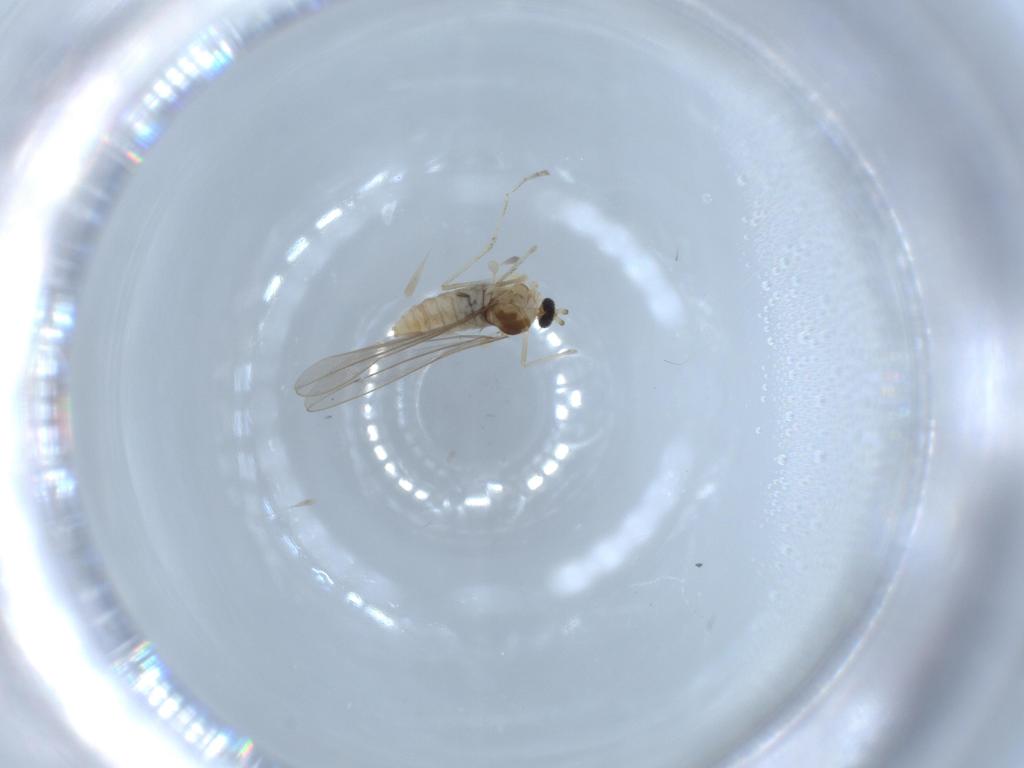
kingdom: Animalia
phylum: Arthropoda
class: Insecta
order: Diptera
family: Cecidomyiidae
